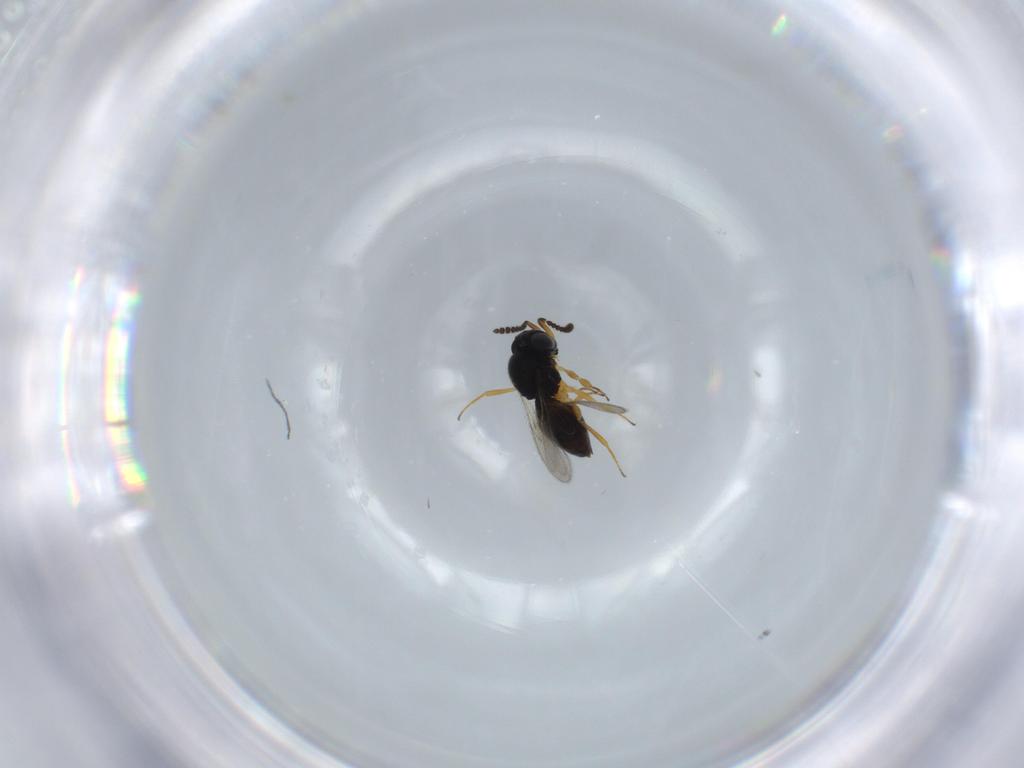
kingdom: Animalia
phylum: Arthropoda
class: Insecta
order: Hymenoptera
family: Scelionidae
